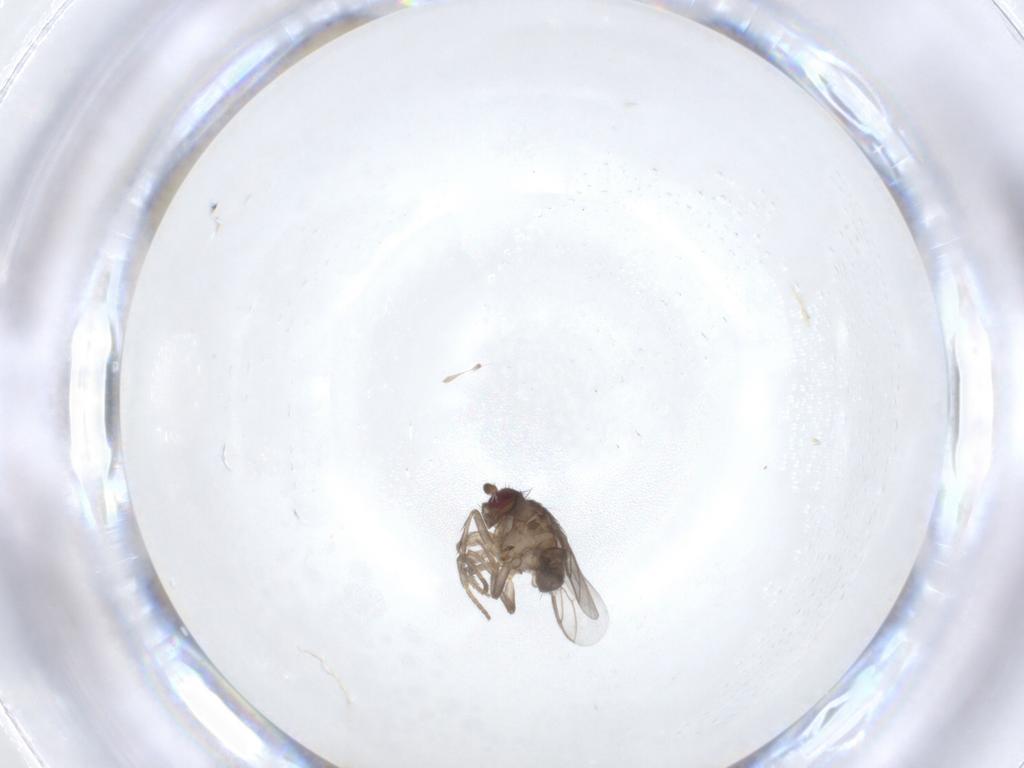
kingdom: Animalia
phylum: Arthropoda
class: Insecta
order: Diptera
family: Sphaeroceridae
